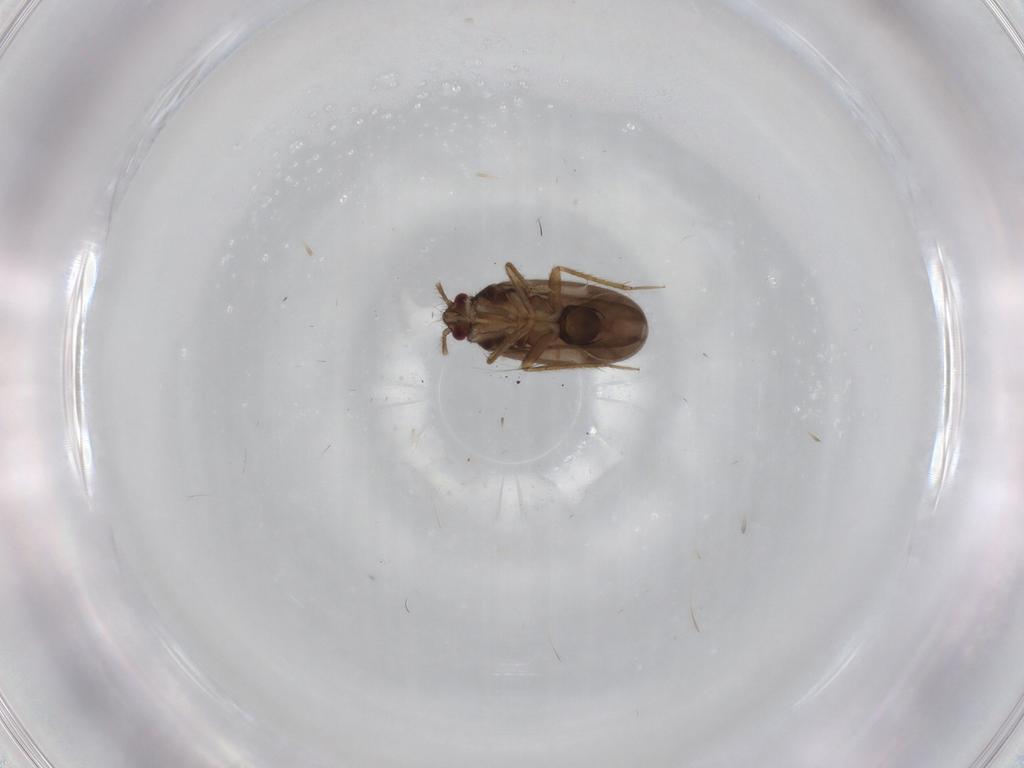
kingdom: Animalia
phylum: Arthropoda
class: Insecta
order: Hemiptera
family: Ceratocombidae
